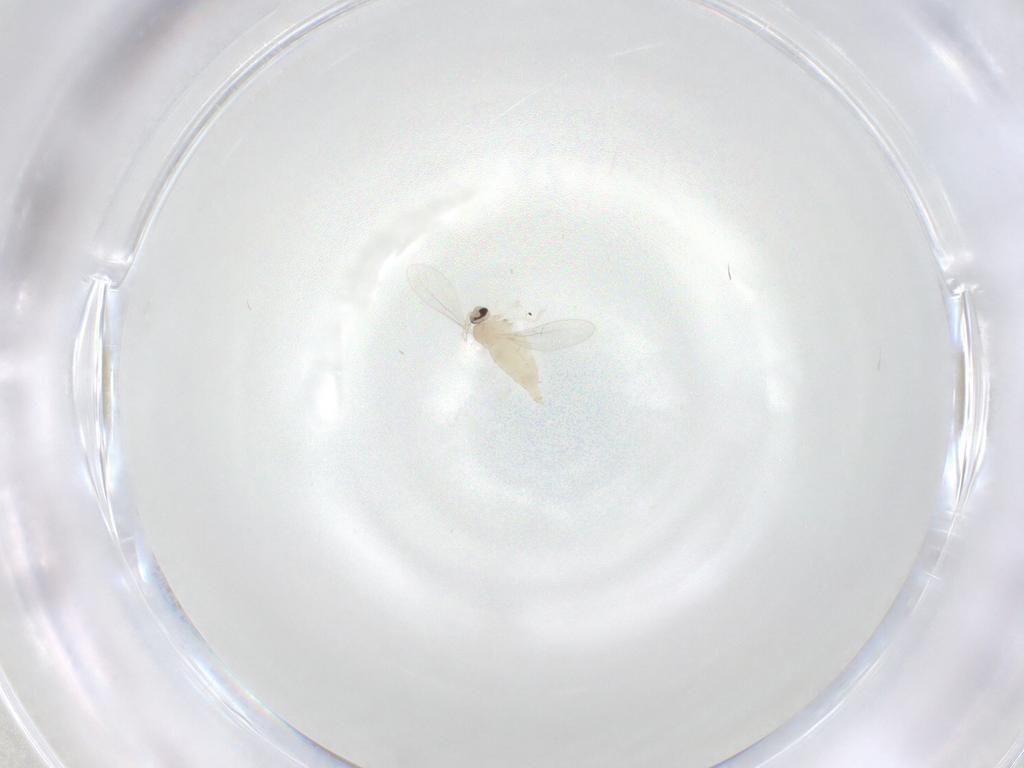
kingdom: Animalia
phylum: Arthropoda
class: Insecta
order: Diptera
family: Cecidomyiidae
